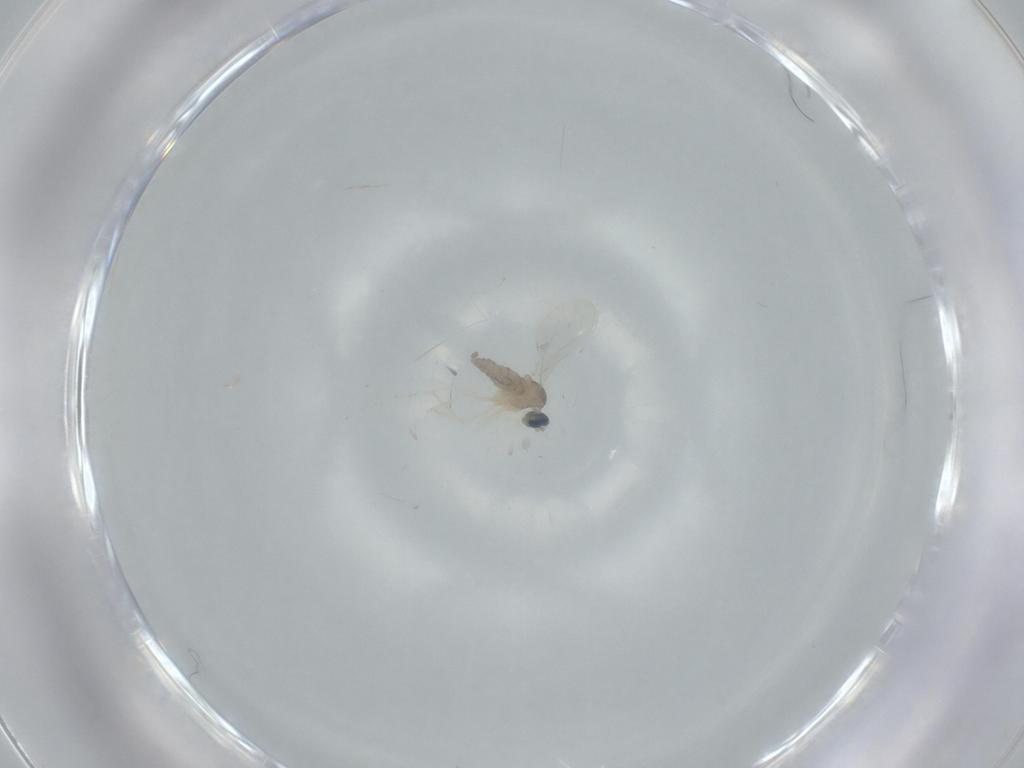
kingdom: Animalia
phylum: Arthropoda
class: Insecta
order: Diptera
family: Cecidomyiidae
